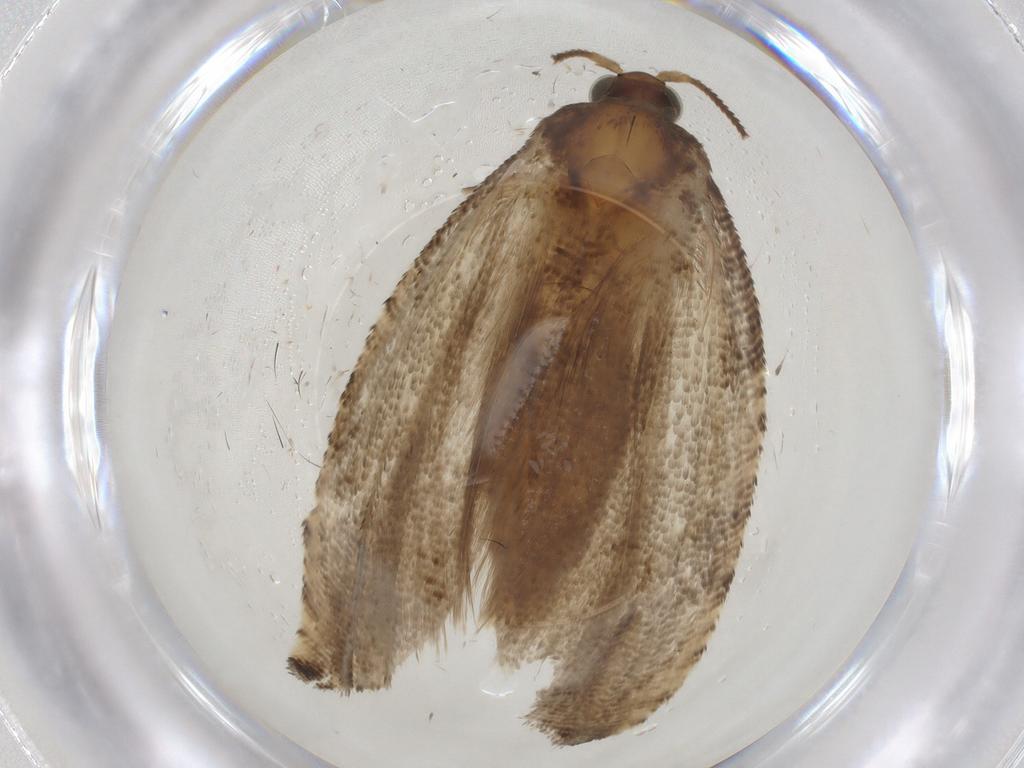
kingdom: Animalia
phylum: Arthropoda
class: Insecta
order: Lepidoptera
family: Tortricidae
